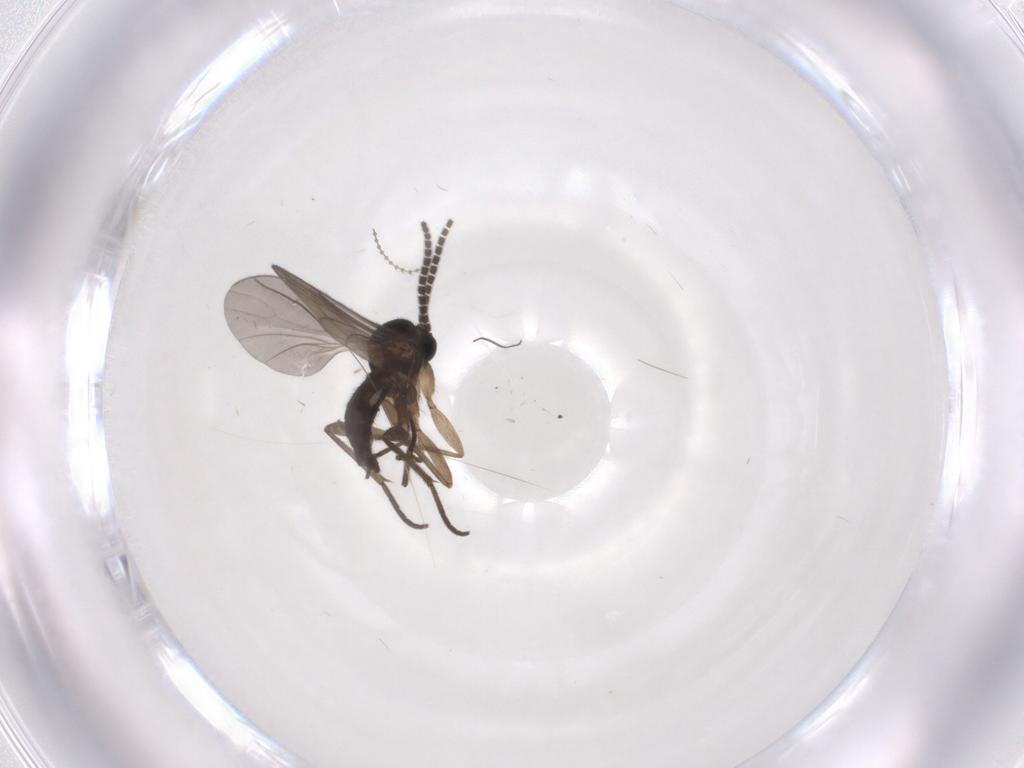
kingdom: Animalia
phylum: Arthropoda
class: Insecta
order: Diptera
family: Sciaridae
